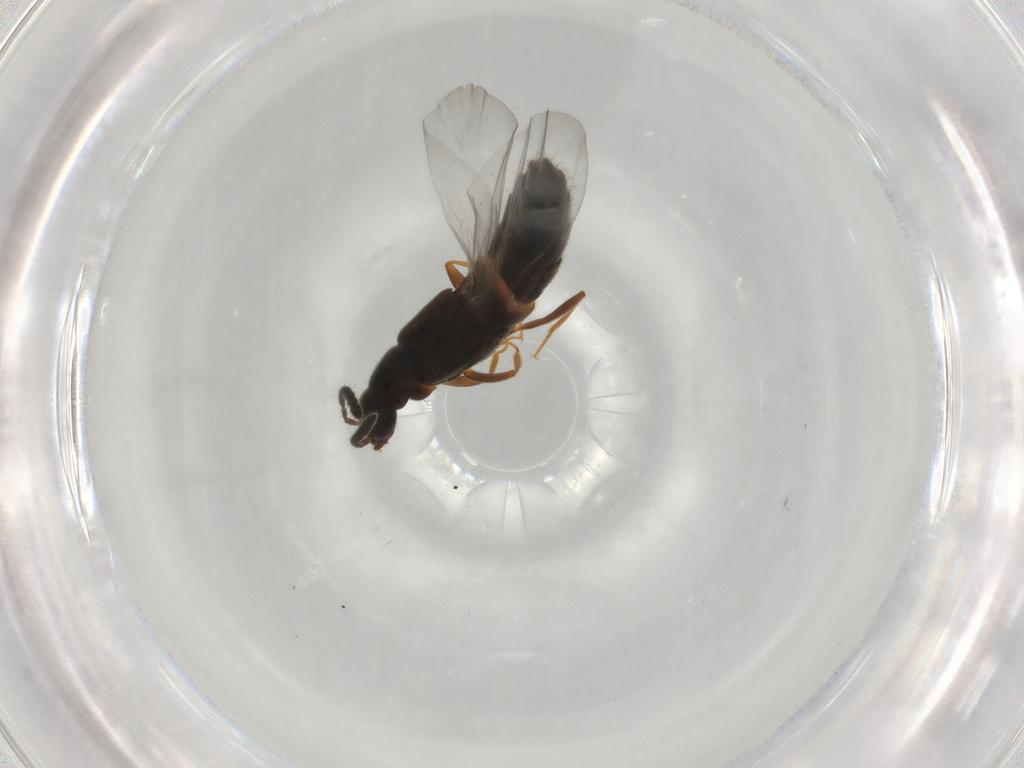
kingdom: Animalia
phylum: Arthropoda
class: Insecta
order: Coleoptera
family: Staphylinidae
